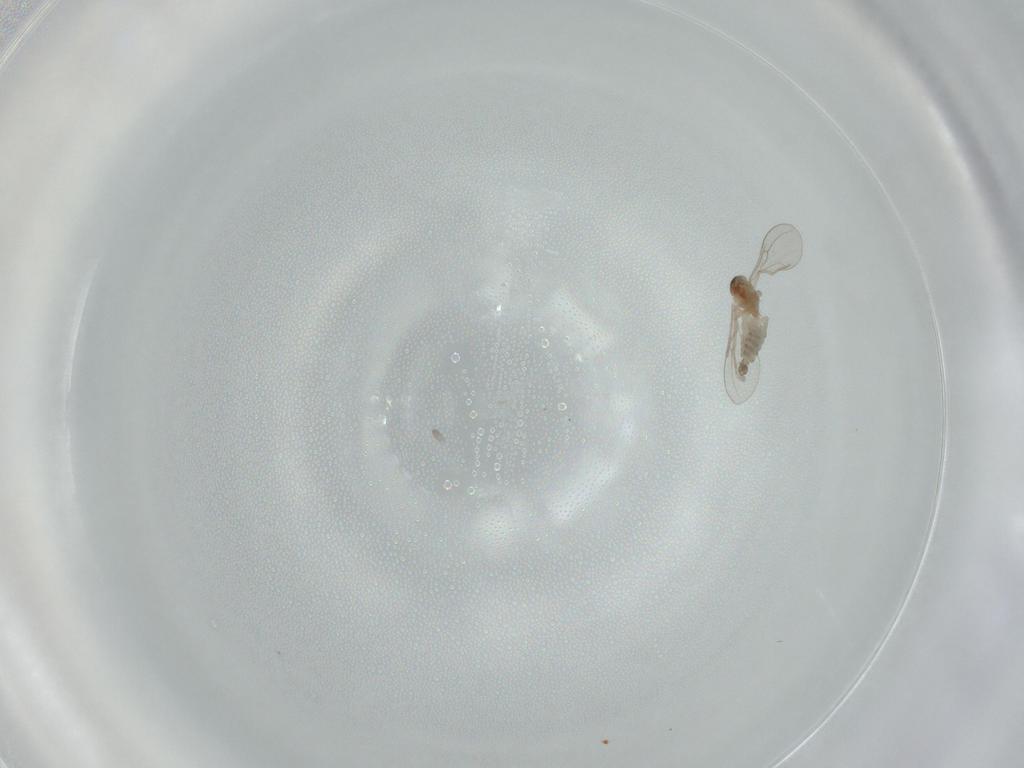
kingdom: Animalia
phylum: Arthropoda
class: Insecta
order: Diptera
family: Cecidomyiidae
